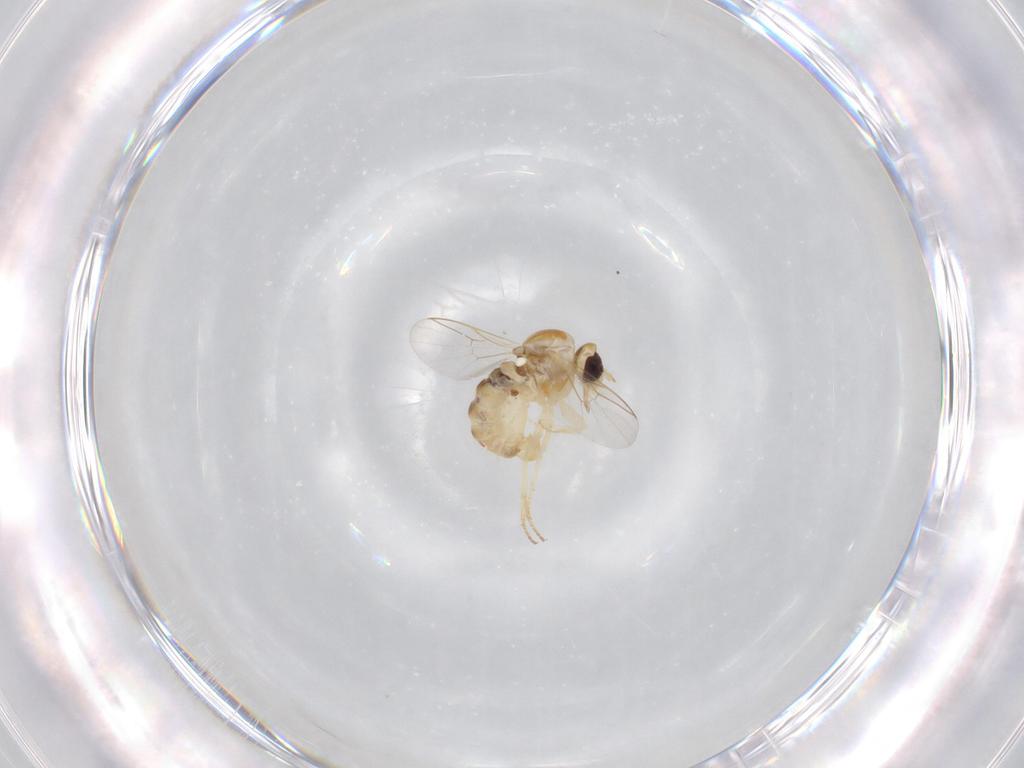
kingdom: Animalia
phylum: Arthropoda
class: Insecta
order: Diptera
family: Mythicomyiidae
